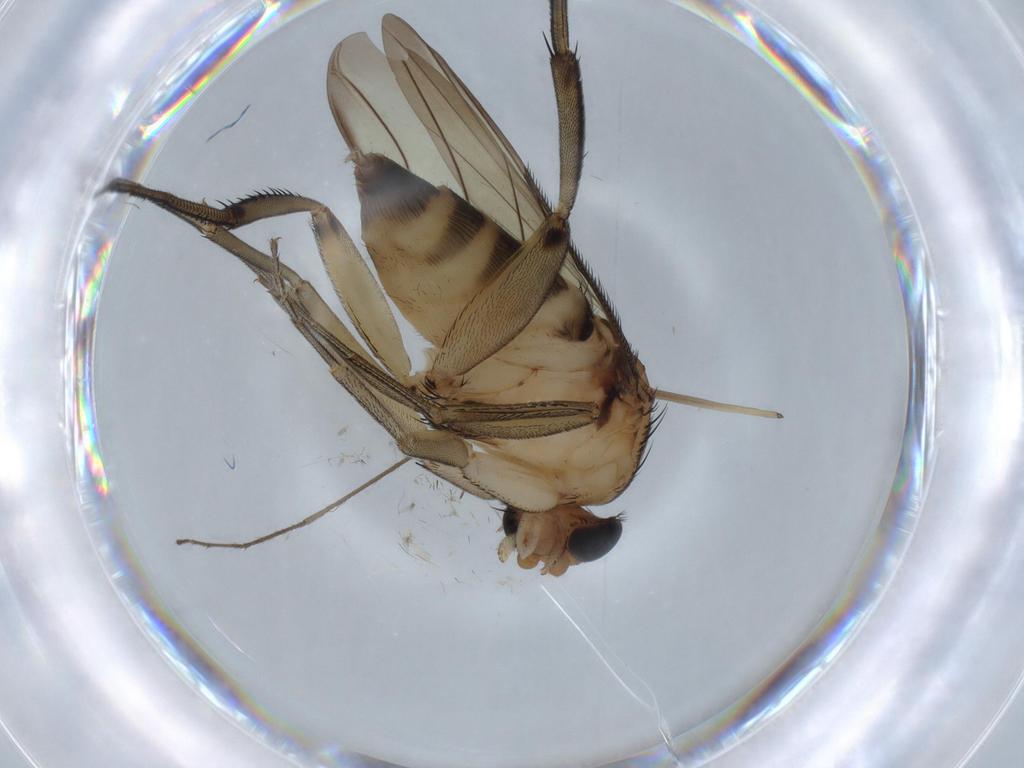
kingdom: Animalia
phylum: Arthropoda
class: Insecta
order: Diptera
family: Phoridae
